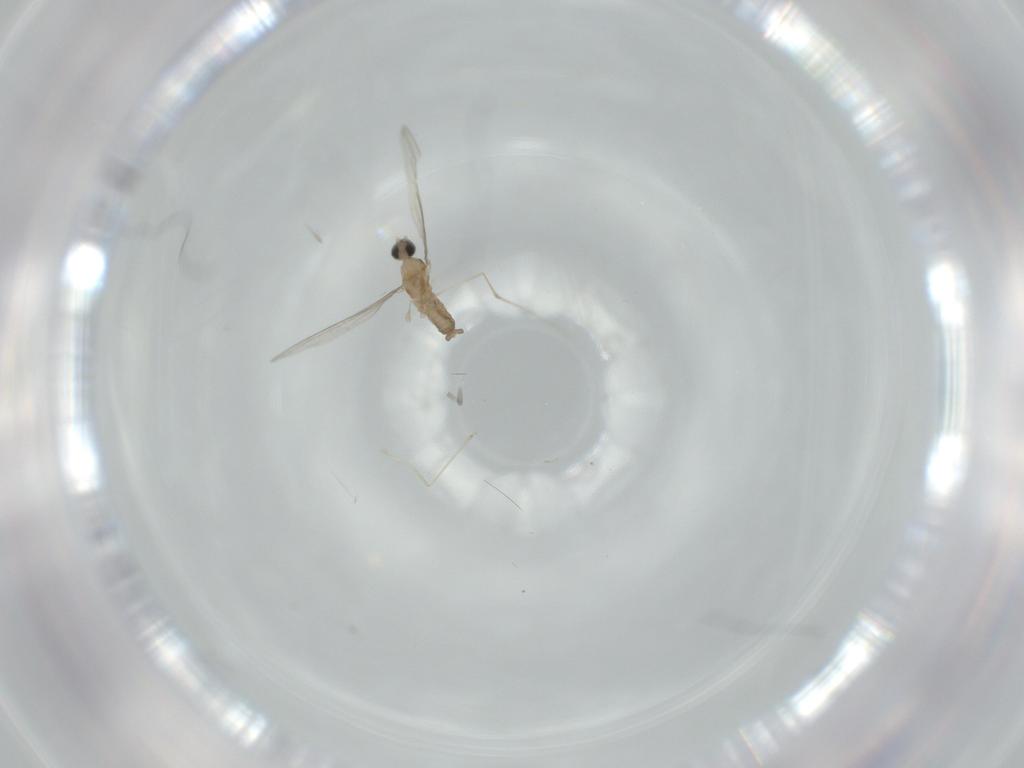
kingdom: Animalia
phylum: Arthropoda
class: Insecta
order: Diptera
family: Cecidomyiidae
